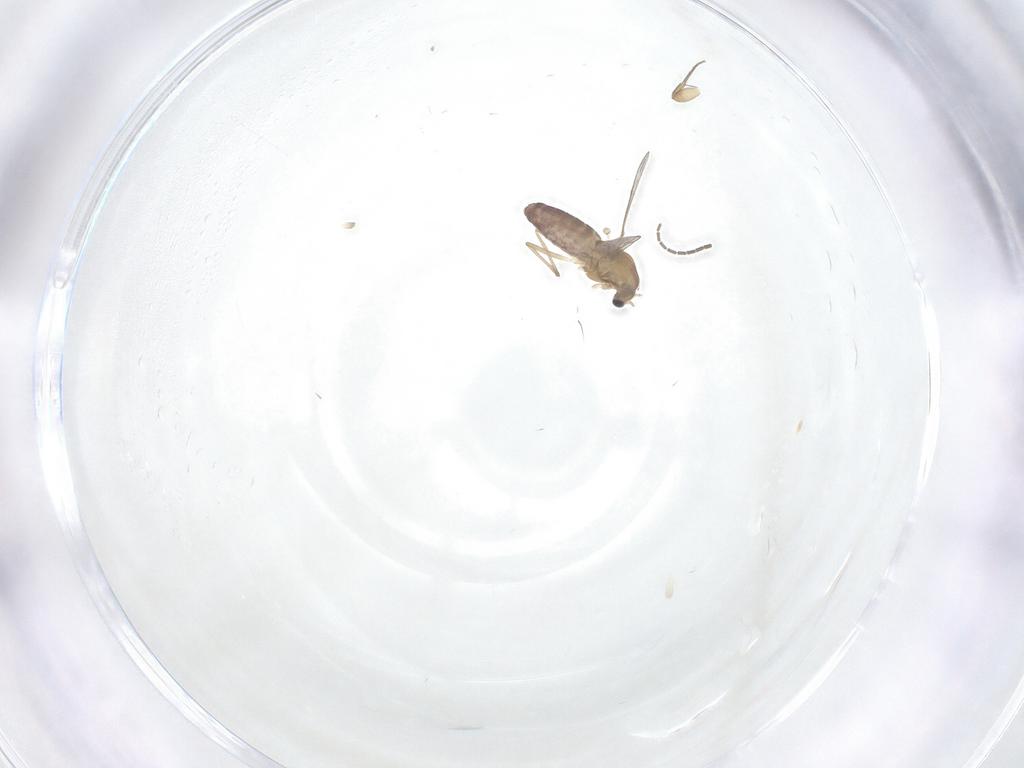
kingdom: Animalia
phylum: Arthropoda
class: Insecta
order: Diptera
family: Chironomidae
